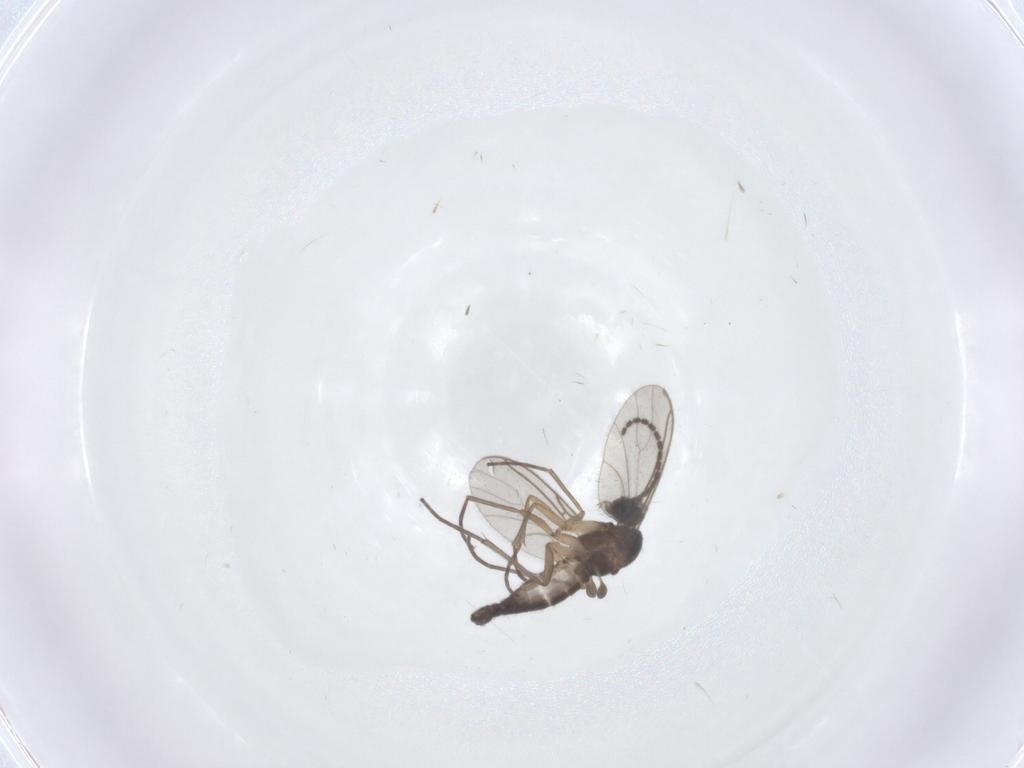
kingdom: Animalia
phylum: Arthropoda
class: Insecta
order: Diptera
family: Sciaridae
